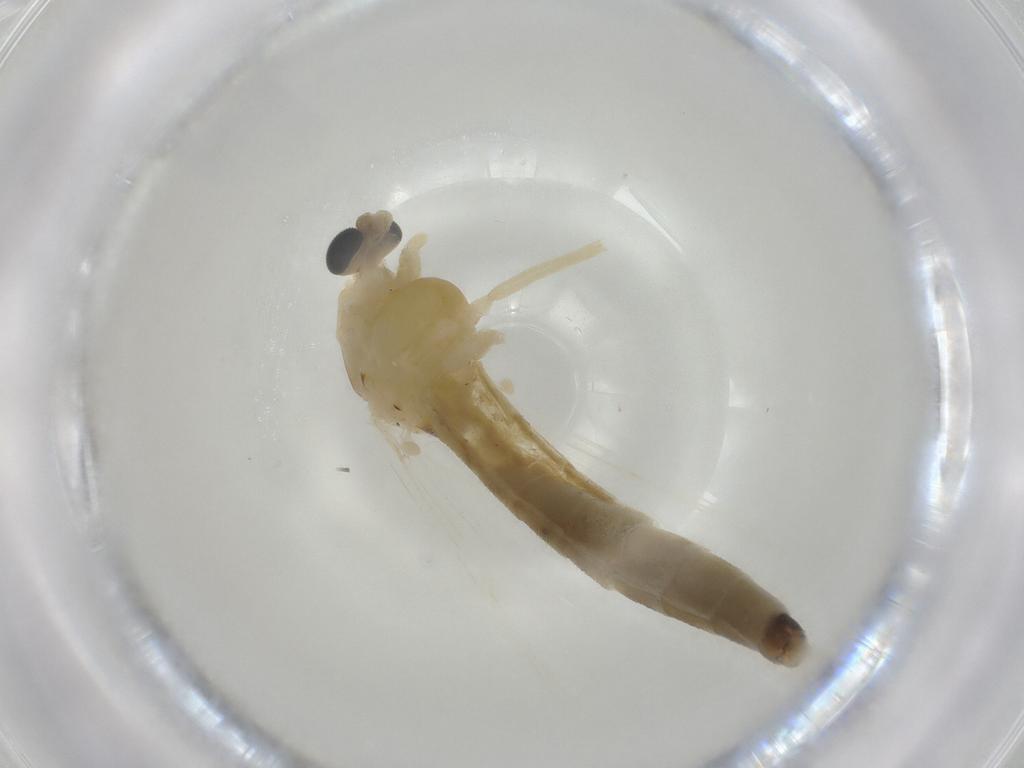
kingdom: Animalia
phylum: Arthropoda
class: Insecta
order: Diptera
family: Cecidomyiidae
